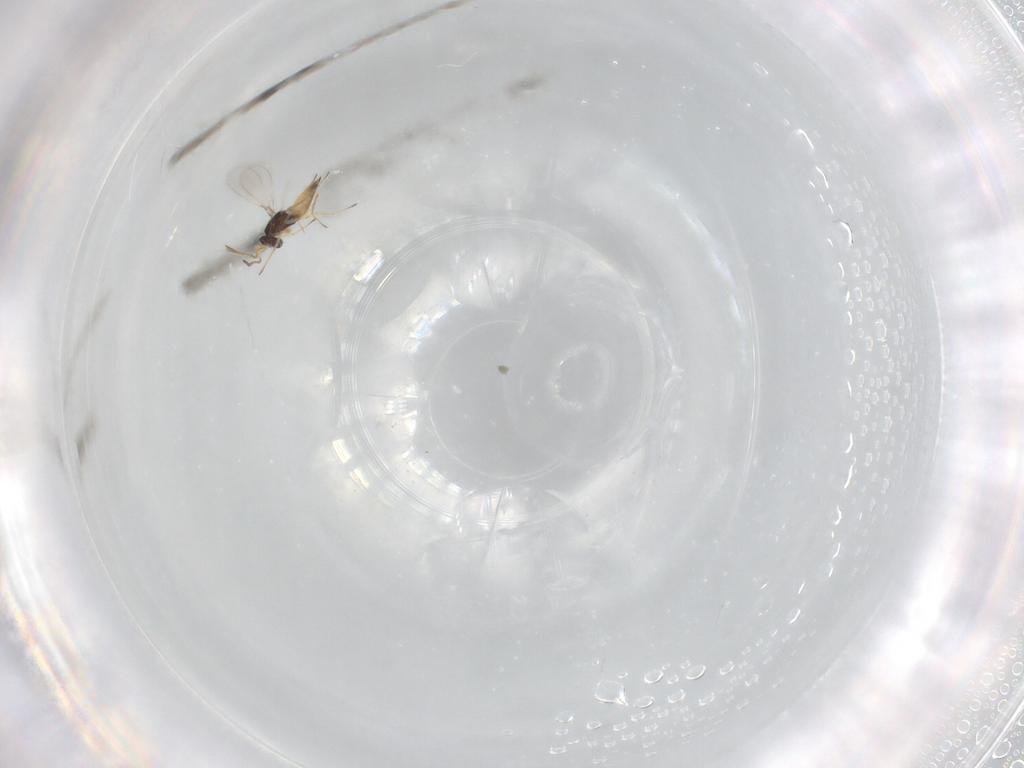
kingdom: Animalia
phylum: Arthropoda
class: Insecta
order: Hymenoptera
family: Mymaridae
